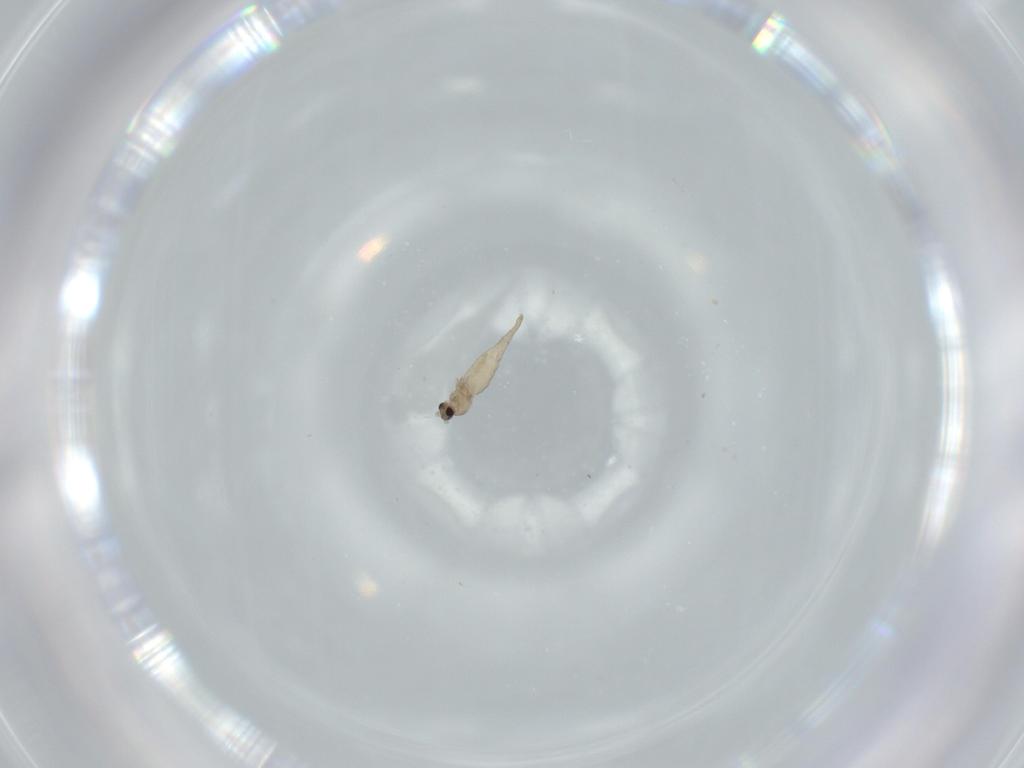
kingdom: Animalia
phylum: Arthropoda
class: Insecta
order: Diptera
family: Cecidomyiidae
